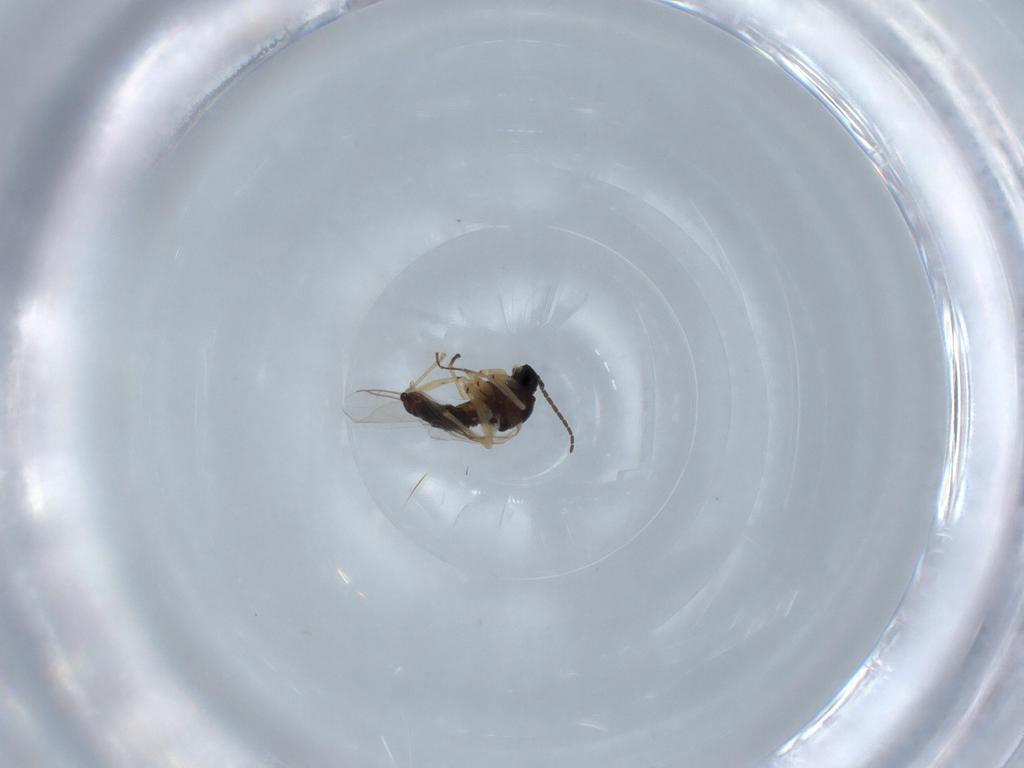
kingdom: Animalia
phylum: Arthropoda
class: Insecta
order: Diptera
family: Sciaridae
